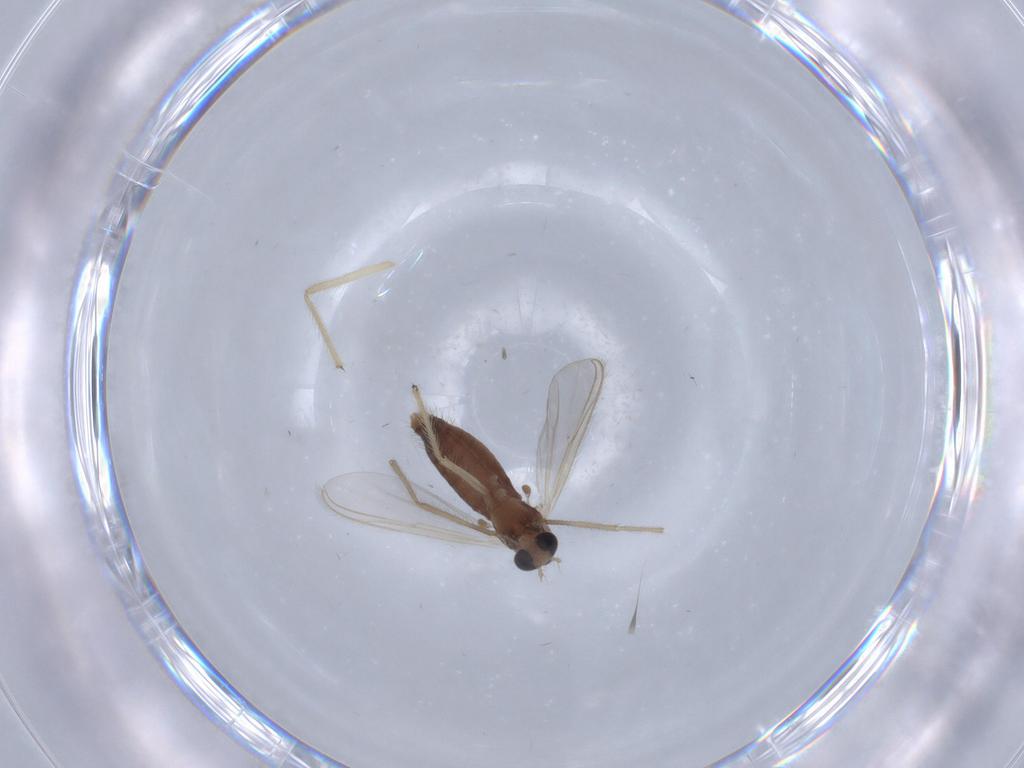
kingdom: Animalia
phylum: Arthropoda
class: Insecta
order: Diptera
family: Chironomidae
